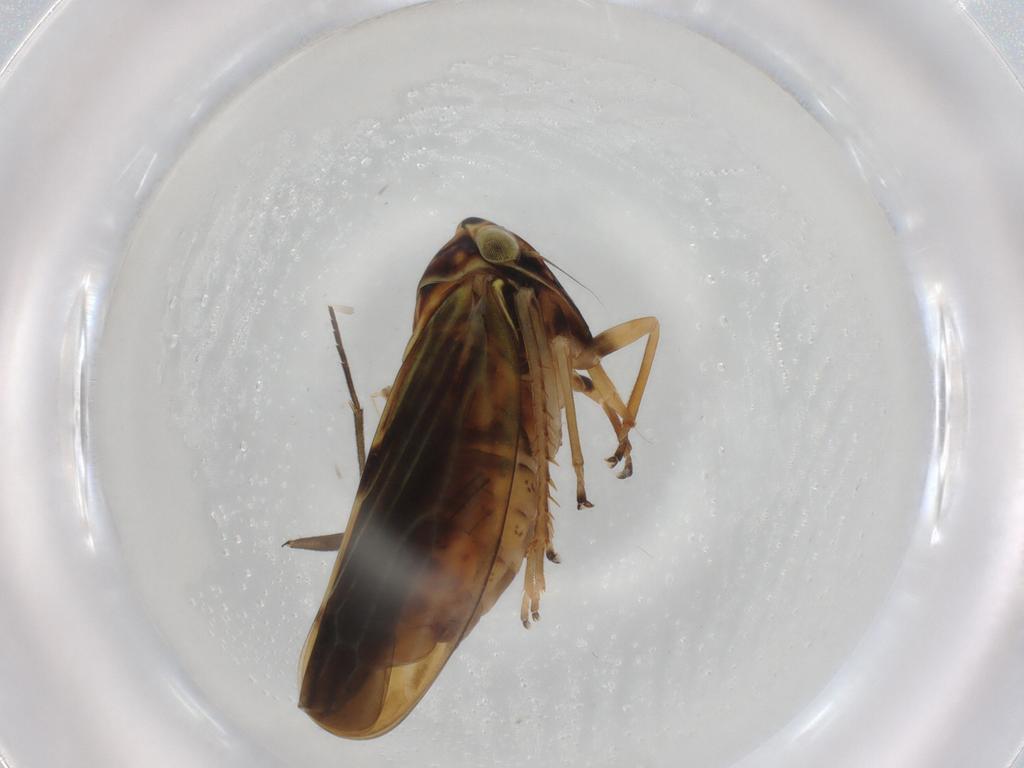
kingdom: Animalia
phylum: Arthropoda
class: Insecta
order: Hemiptera
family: Cicadellidae
